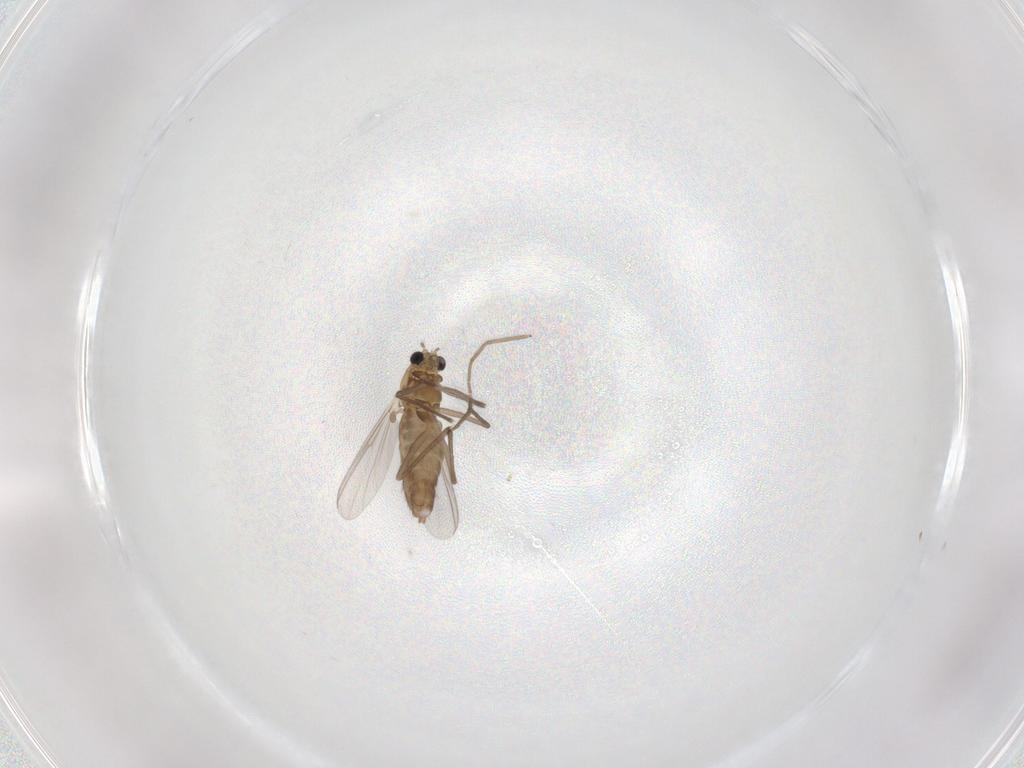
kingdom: Animalia
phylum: Arthropoda
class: Insecta
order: Diptera
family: Chironomidae
